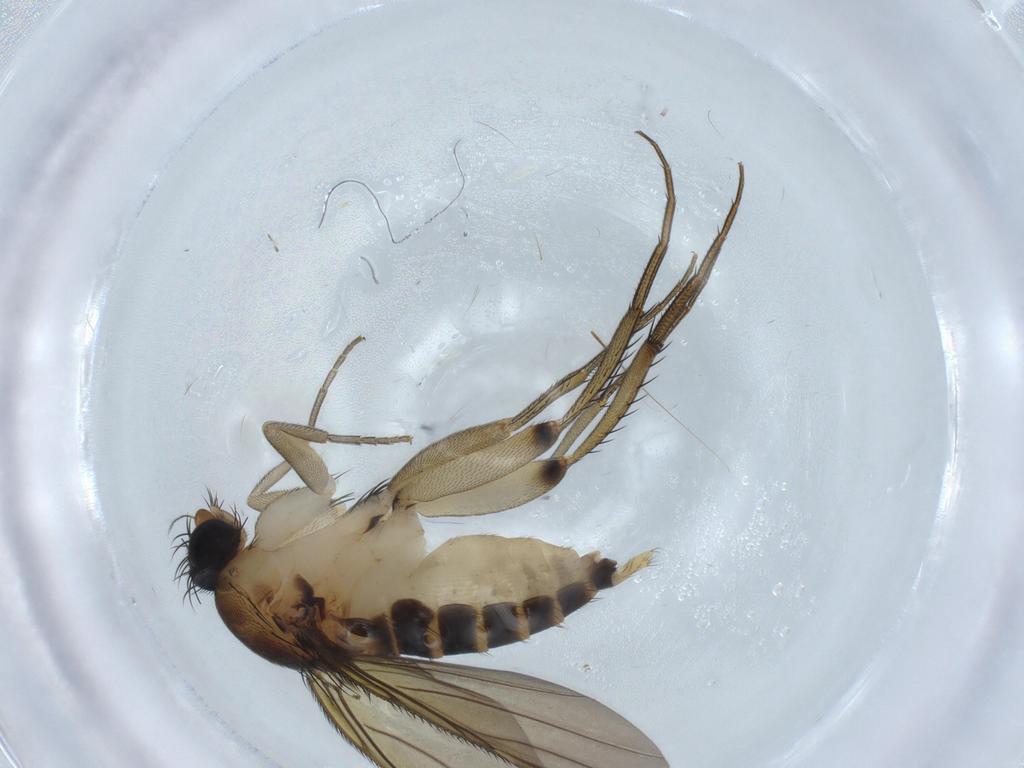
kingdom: Animalia
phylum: Arthropoda
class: Insecta
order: Diptera
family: Phoridae
